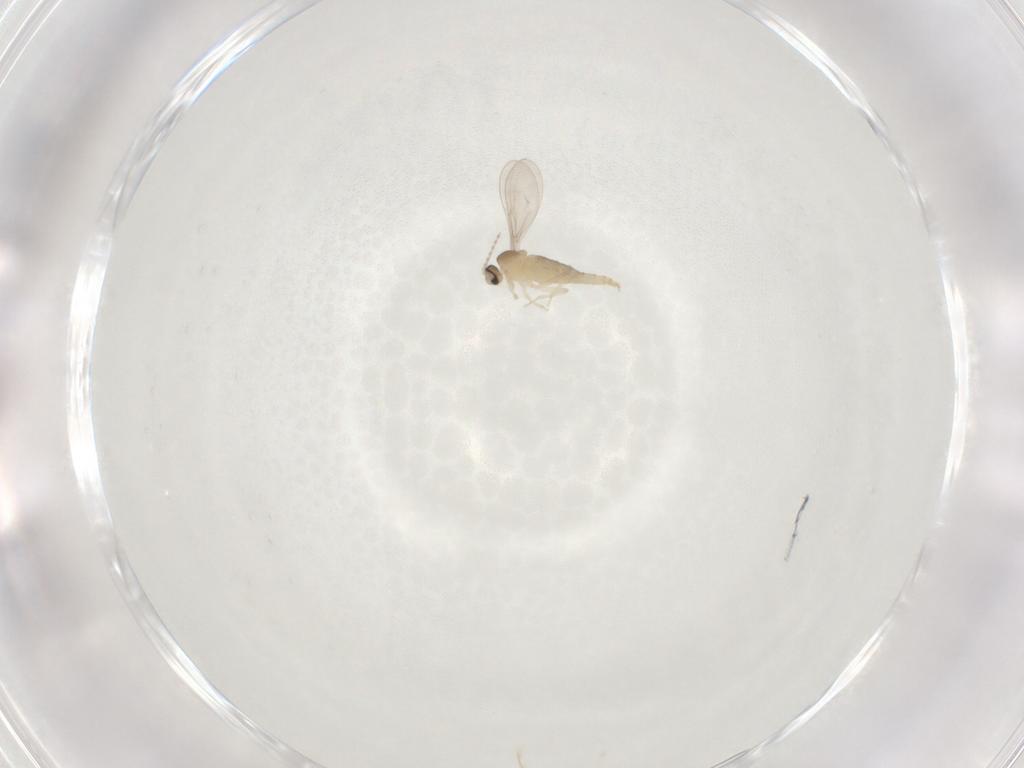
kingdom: Animalia
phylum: Arthropoda
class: Insecta
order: Diptera
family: Cecidomyiidae
